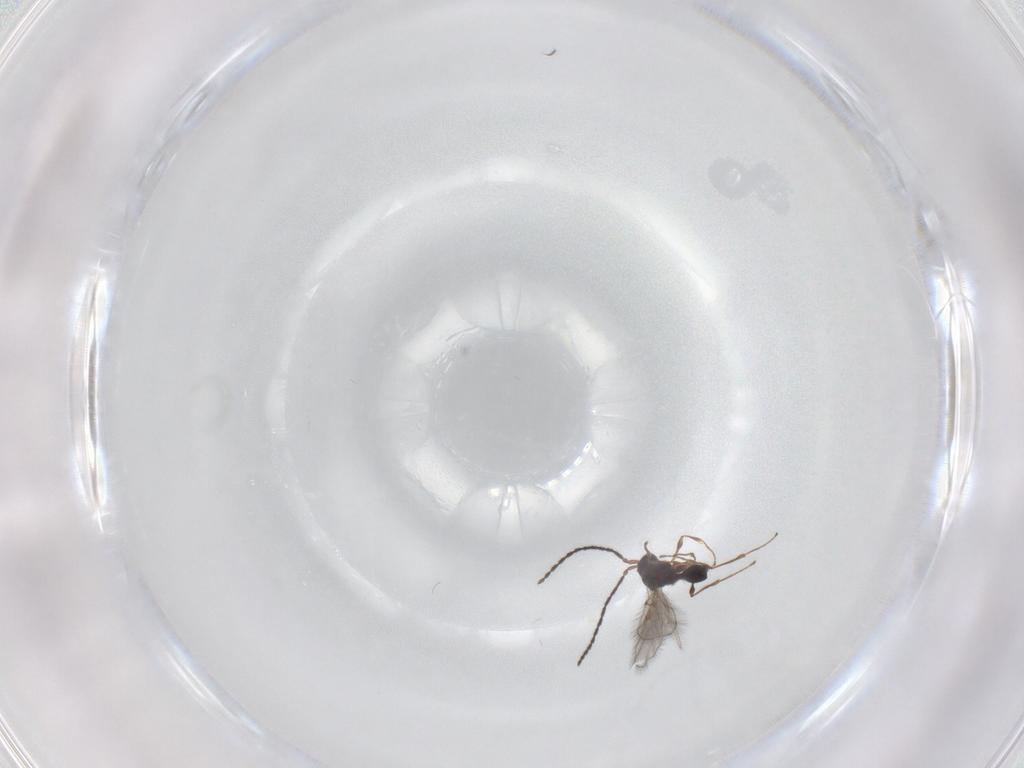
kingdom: Animalia
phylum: Arthropoda
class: Insecta
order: Hymenoptera
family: Diapriidae
